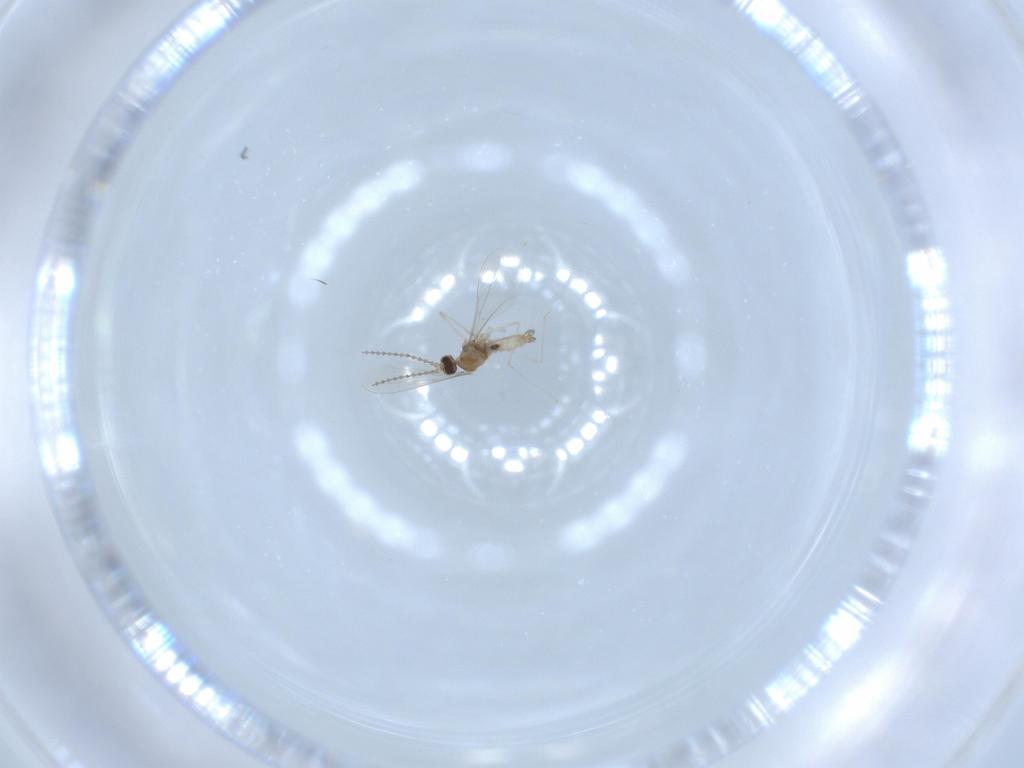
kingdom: Animalia
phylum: Arthropoda
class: Insecta
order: Diptera
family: Cecidomyiidae
